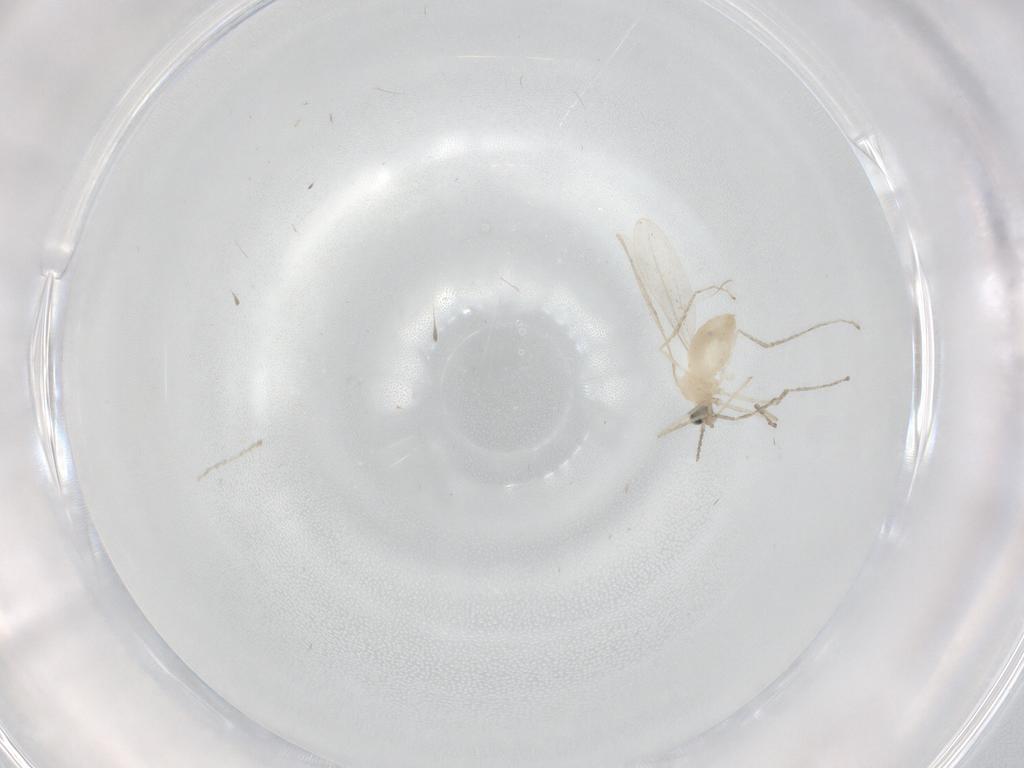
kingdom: Animalia
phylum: Arthropoda
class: Insecta
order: Diptera
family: Cecidomyiidae
